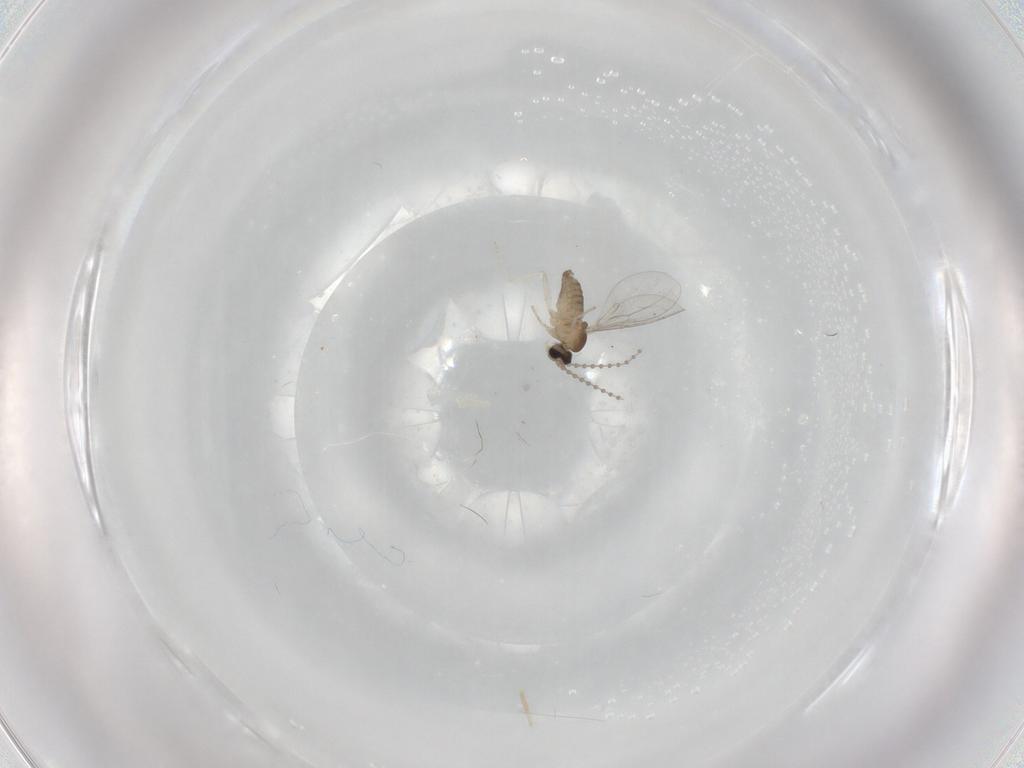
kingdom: Animalia
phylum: Arthropoda
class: Insecta
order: Diptera
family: Cecidomyiidae
